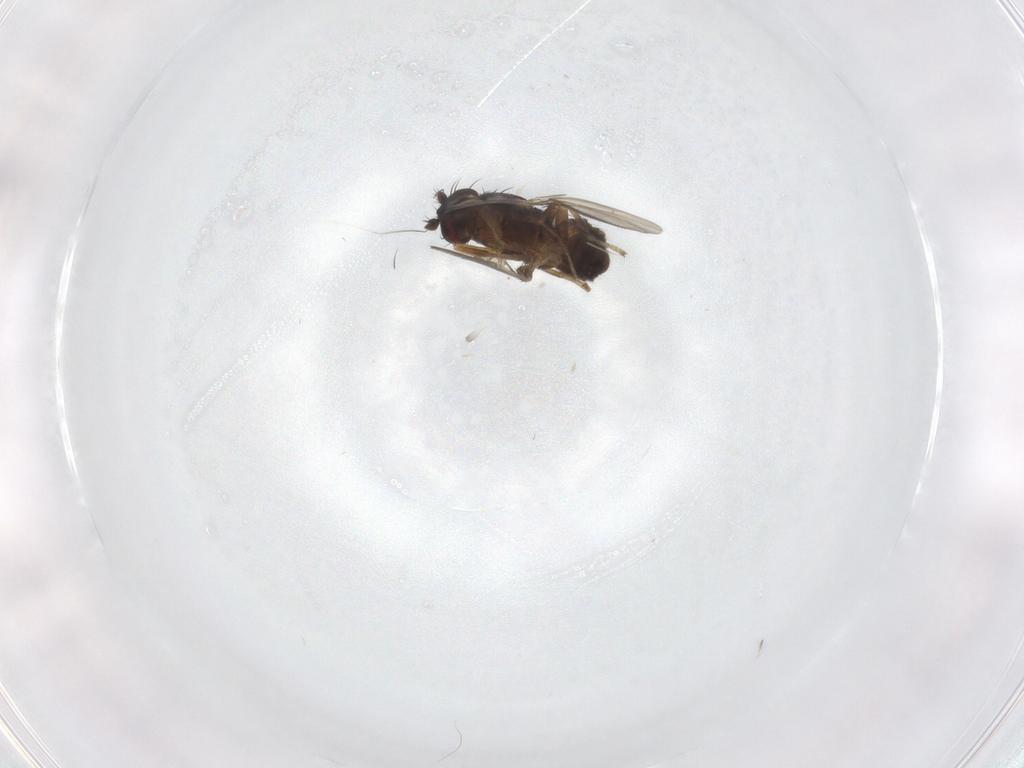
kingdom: Animalia
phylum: Arthropoda
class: Insecta
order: Diptera
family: Sphaeroceridae
